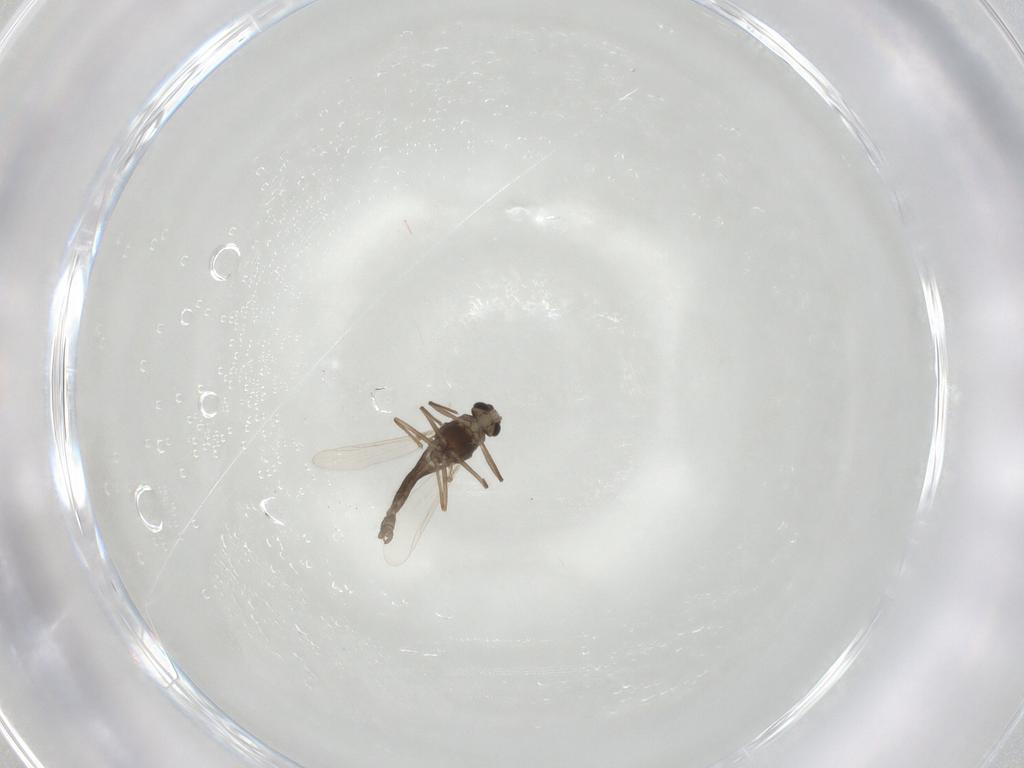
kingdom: Animalia
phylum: Arthropoda
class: Insecta
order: Diptera
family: Chironomidae
